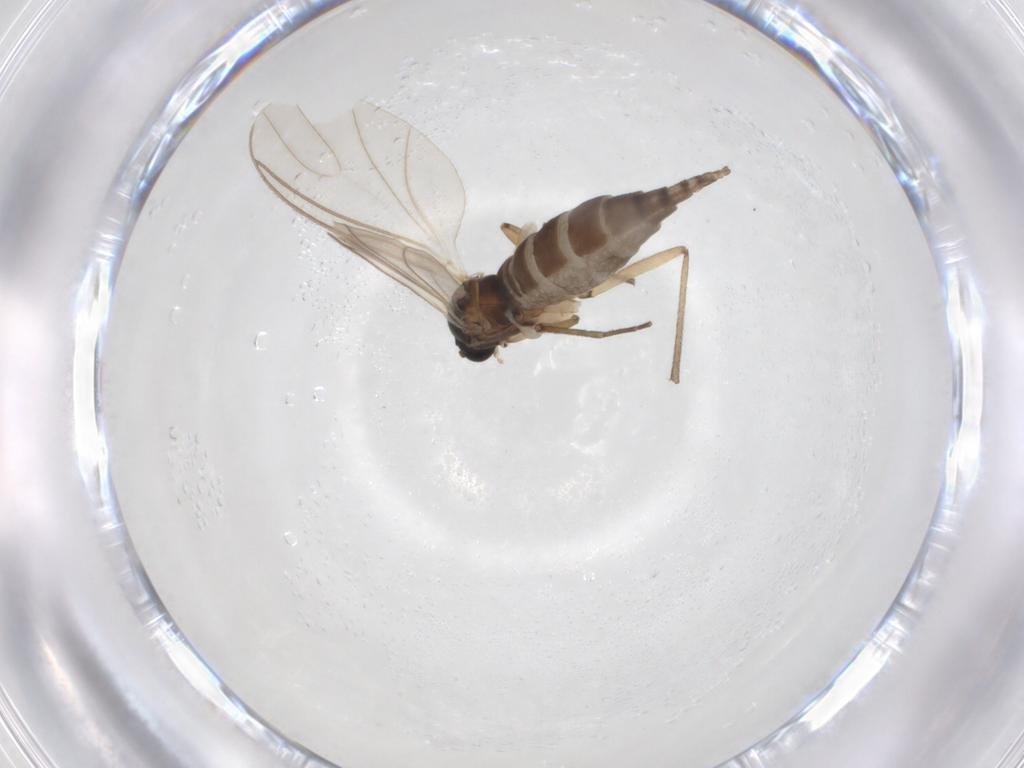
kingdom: Animalia
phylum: Arthropoda
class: Insecta
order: Diptera
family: Sciaridae
